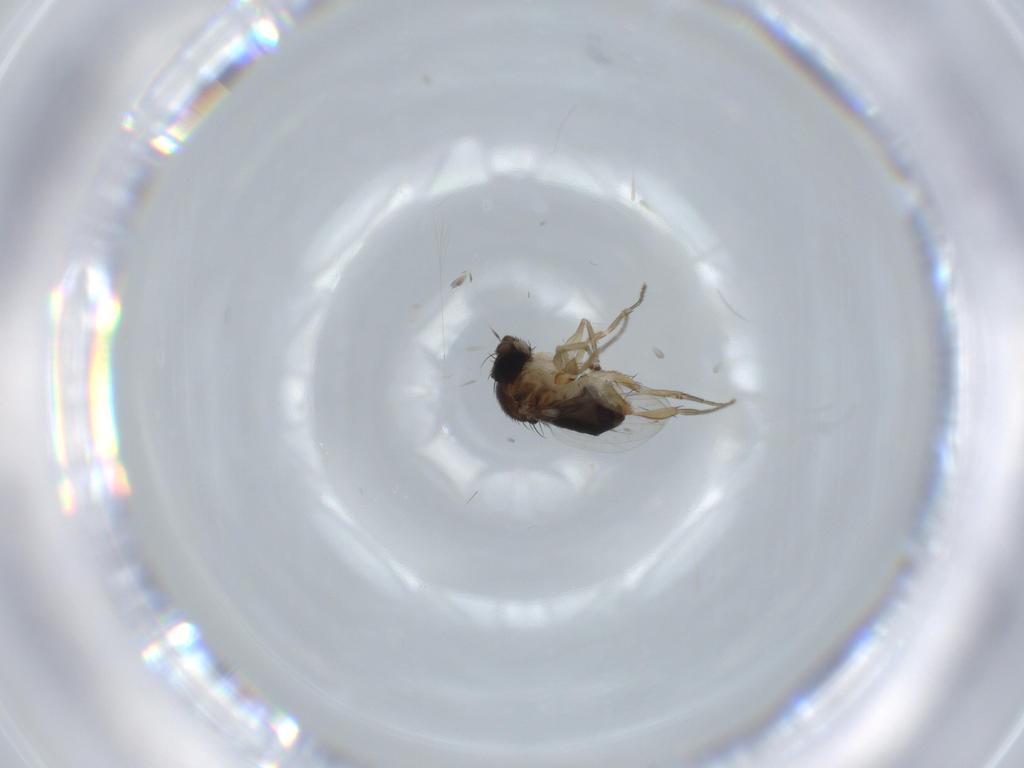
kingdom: Animalia
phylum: Arthropoda
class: Insecta
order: Diptera
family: Phoridae
